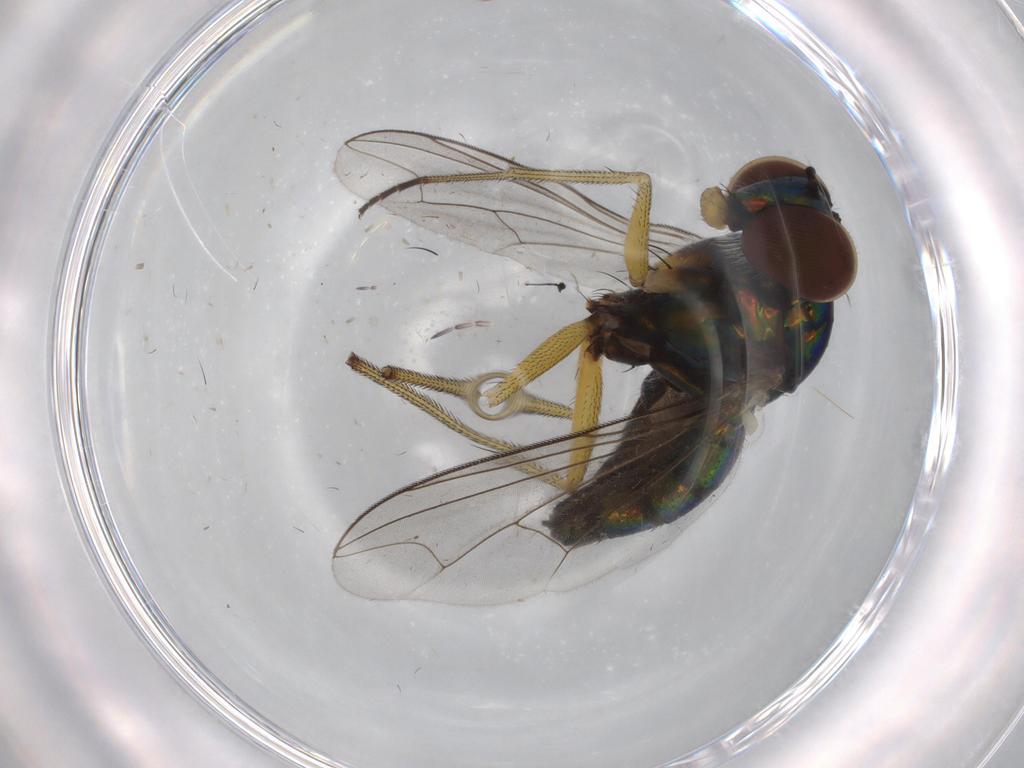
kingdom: Animalia
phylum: Arthropoda
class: Insecta
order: Diptera
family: Dolichopodidae
